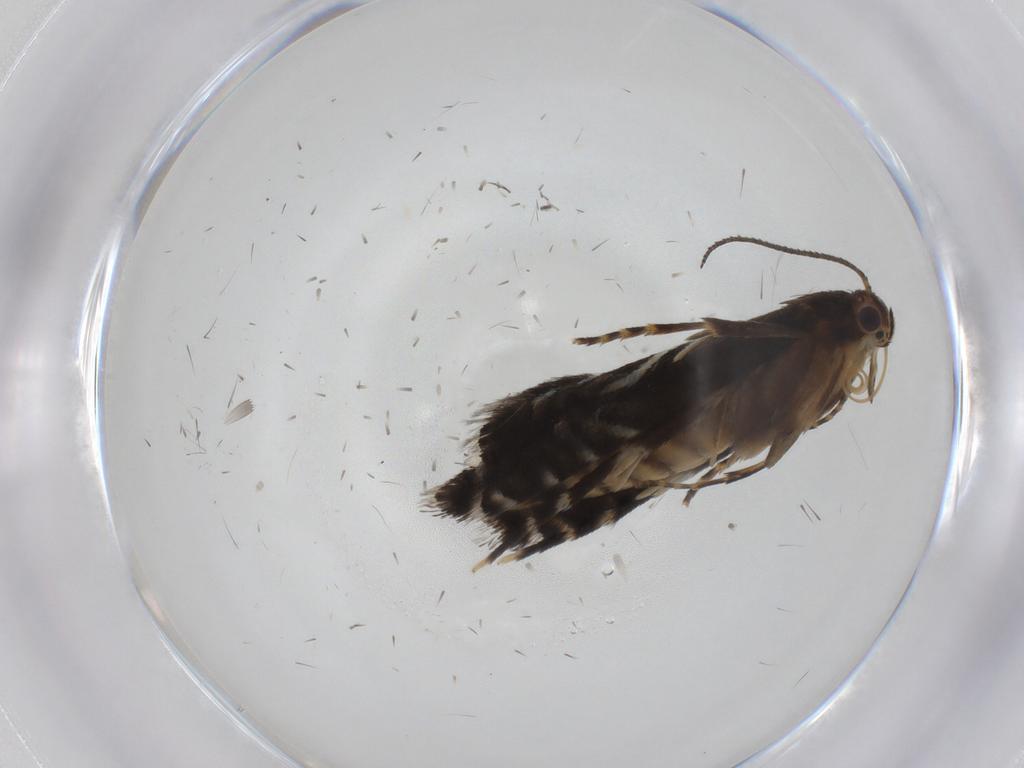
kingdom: Animalia
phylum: Arthropoda
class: Insecta
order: Lepidoptera
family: Glyphipterigidae
